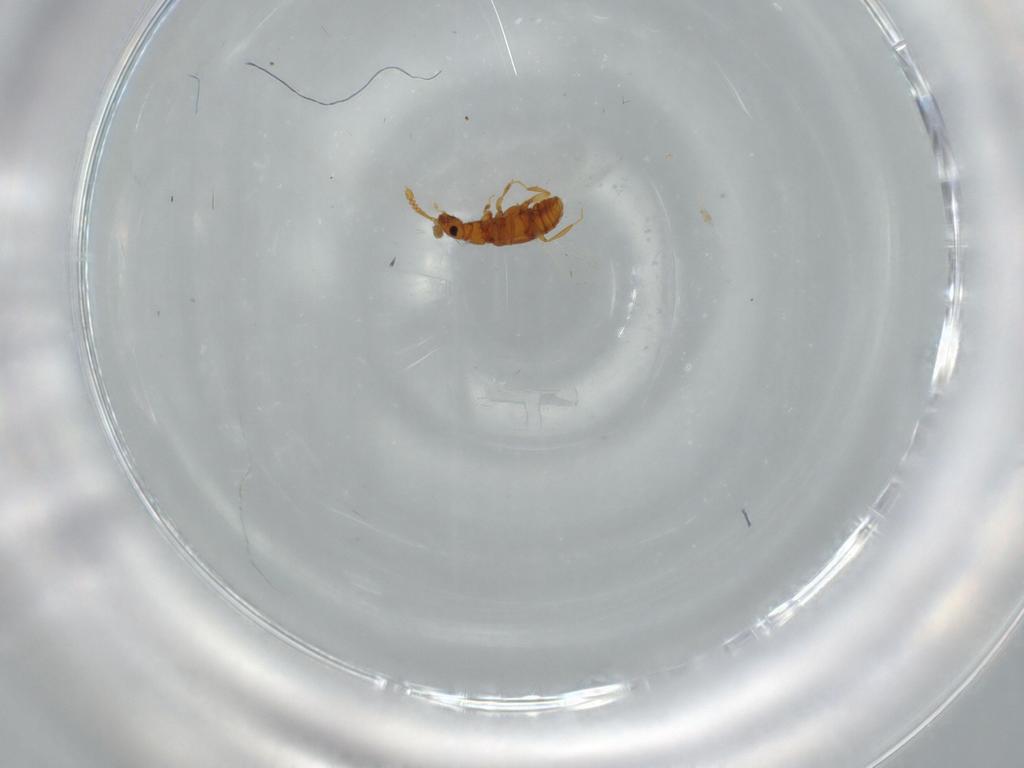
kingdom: Animalia
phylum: Arthropoda
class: Insecta
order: Coleoptera
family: Staphylinidae
